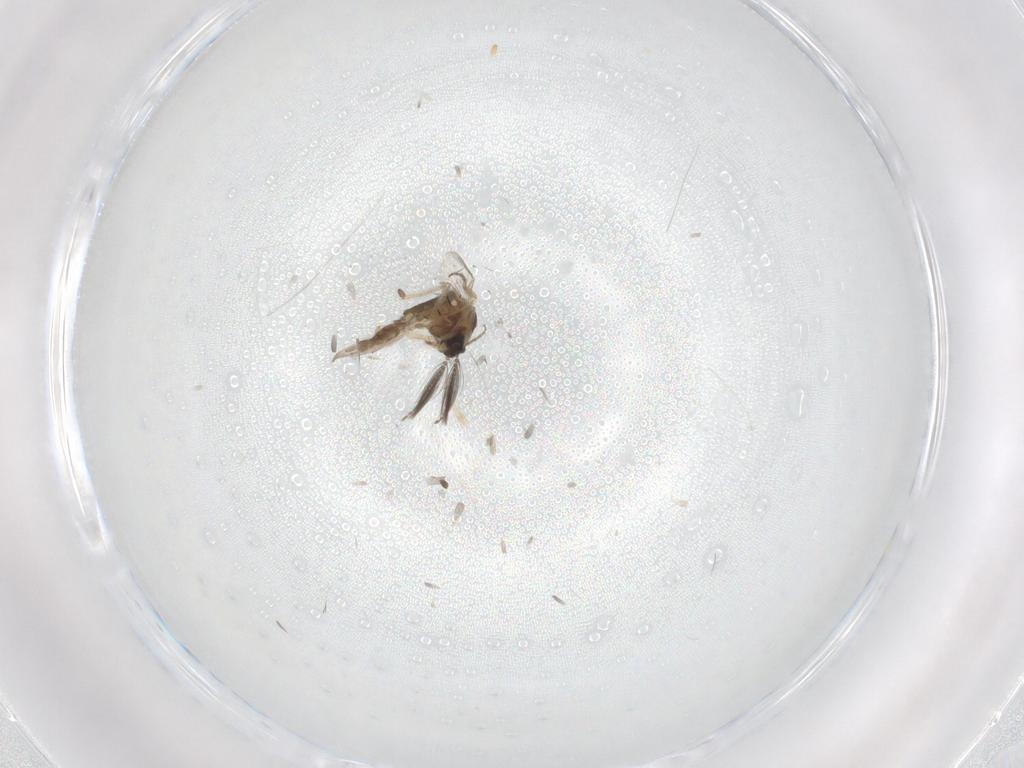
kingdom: Animalia
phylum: Arthropoda
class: Insecta
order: Diptera
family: Ceratopogonidae
